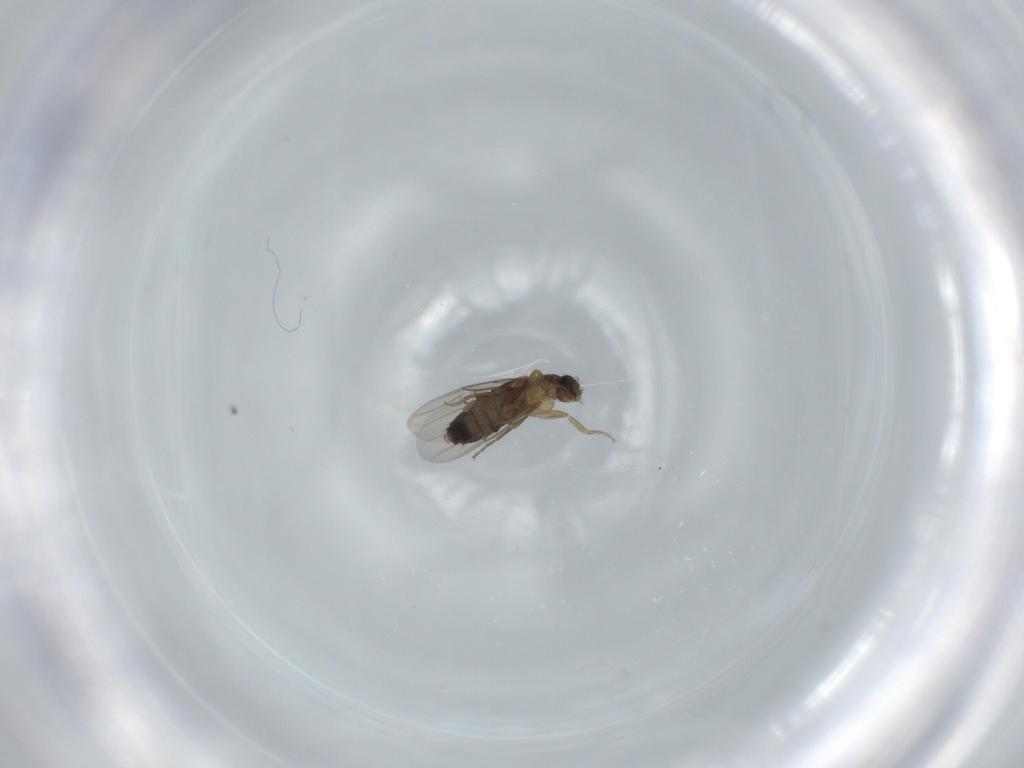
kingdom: Animalia
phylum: Arthropoda
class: Insecta
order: Diptera
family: Phoridae
